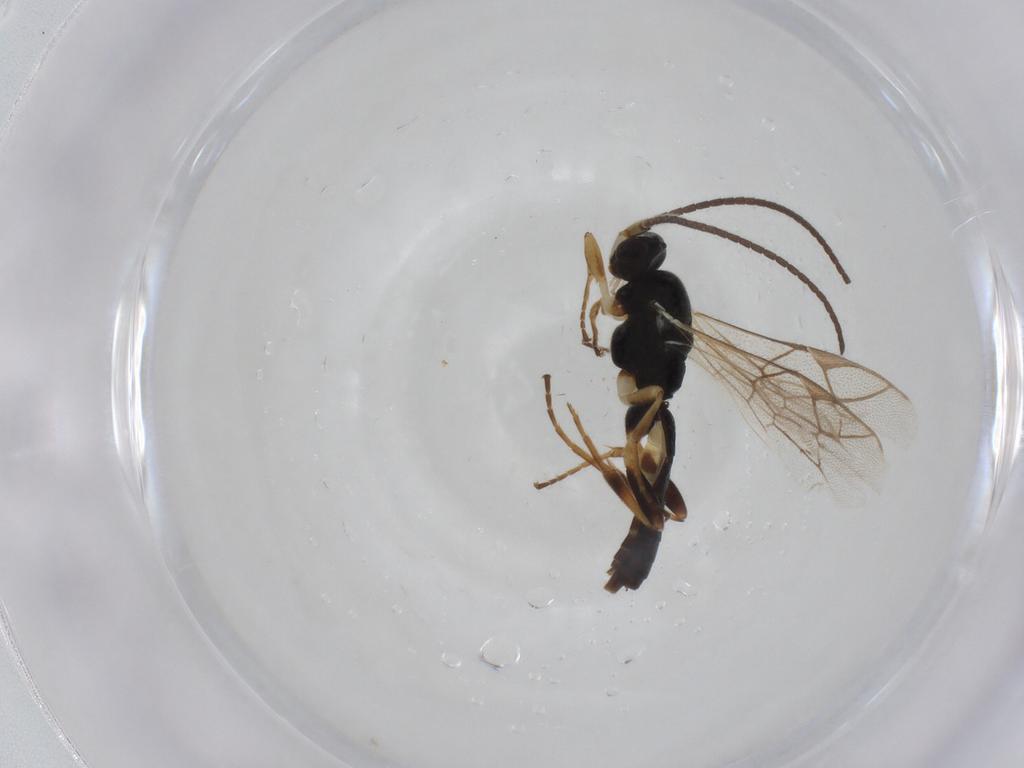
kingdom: Animalia
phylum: Arthropoda
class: Insecta
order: Hymenoptera
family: Ichneumonidae
